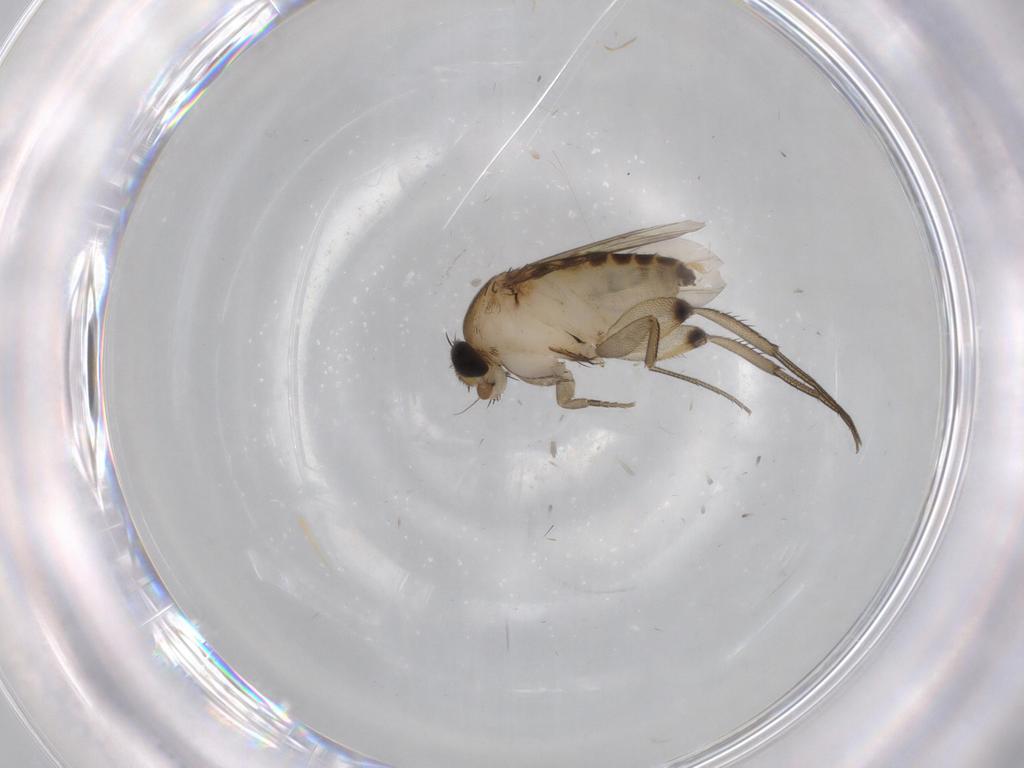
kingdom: Animalia
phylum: Arthropoda
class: Insecta
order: Diptera
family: Phoridae
